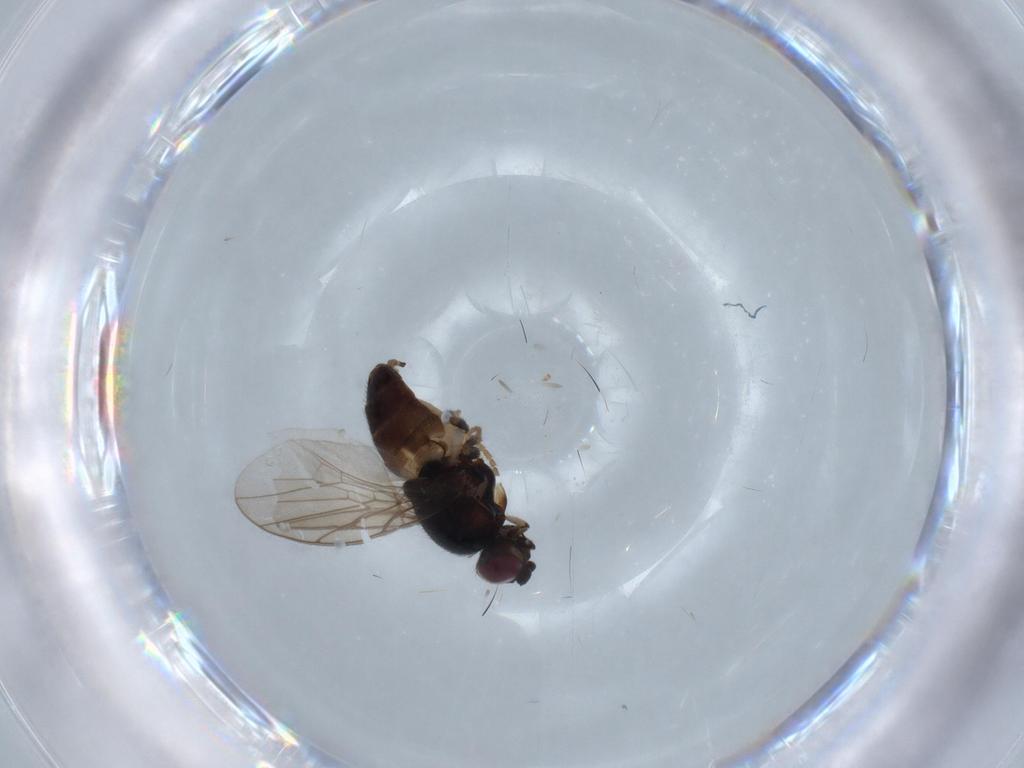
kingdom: Animalia
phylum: Arthropoda
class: Insecta
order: Diptera
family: Chloropidae
